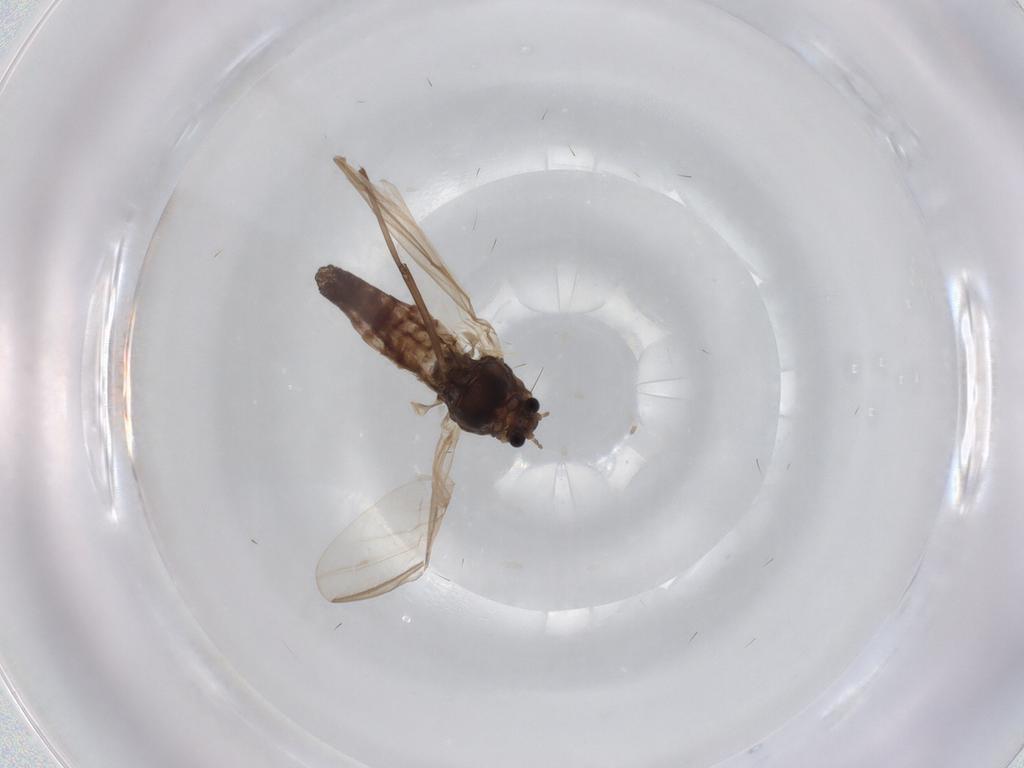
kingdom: Animalia
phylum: Arthropoda
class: Insecta
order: Diptera
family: Chironomidae
